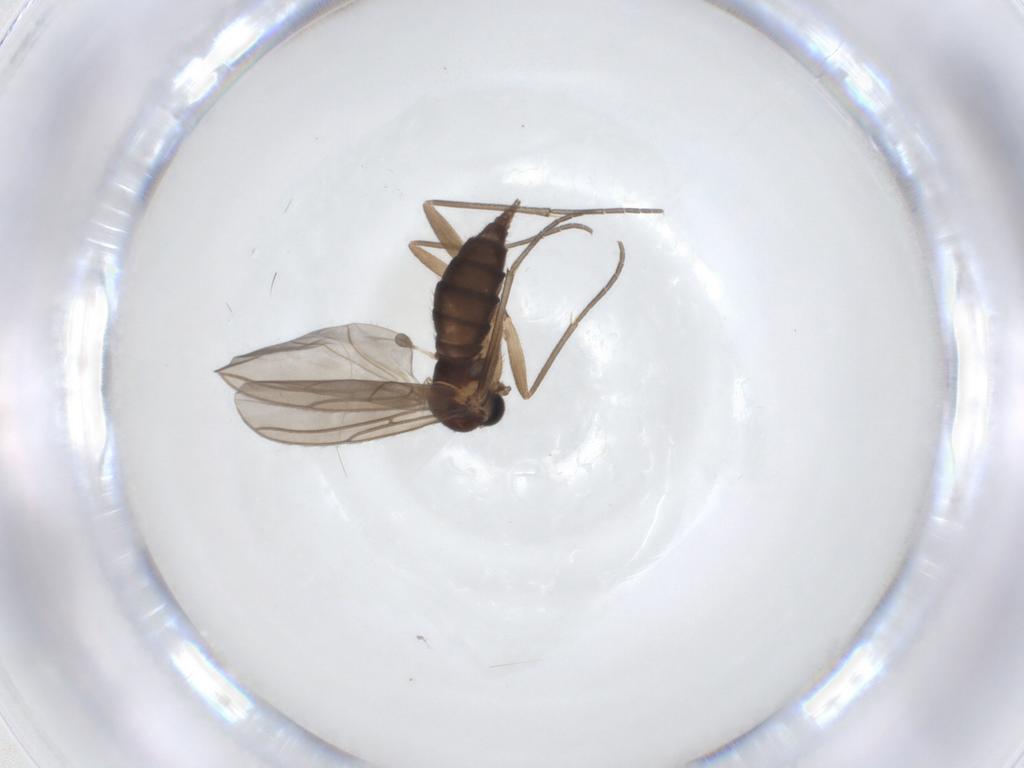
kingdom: Animalia
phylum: Arthropoda
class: Insecta
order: Diptera
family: Sciaridae
